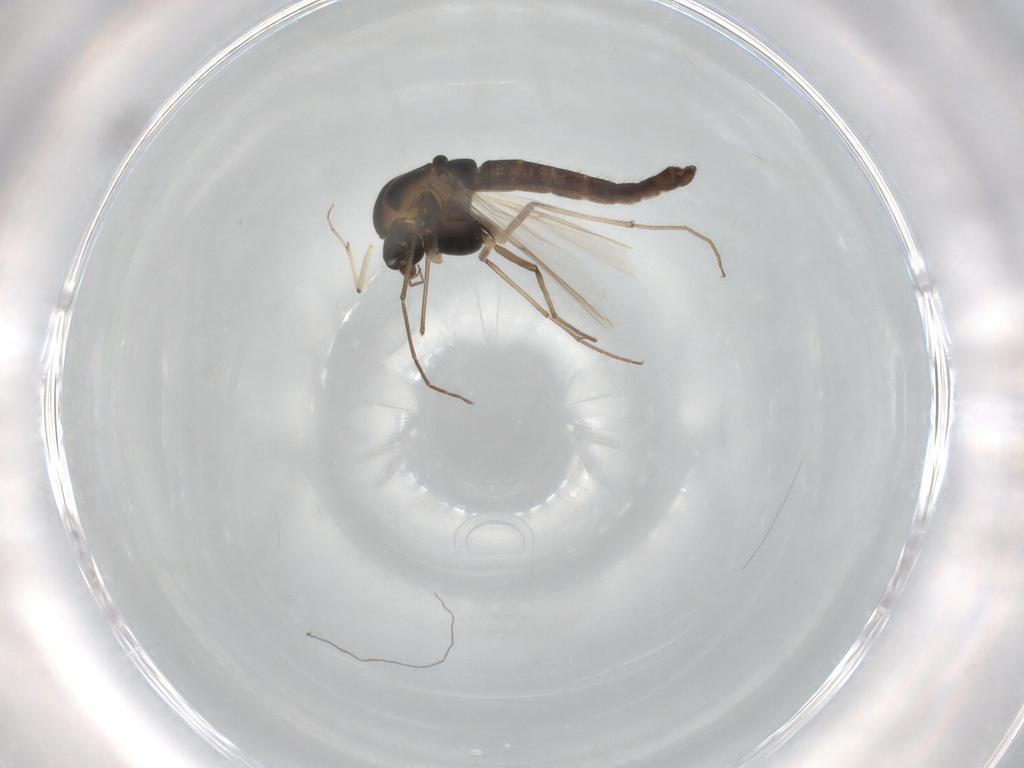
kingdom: Animalia
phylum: Arthropoda
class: Insecta
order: Diptera
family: Chironomidae
